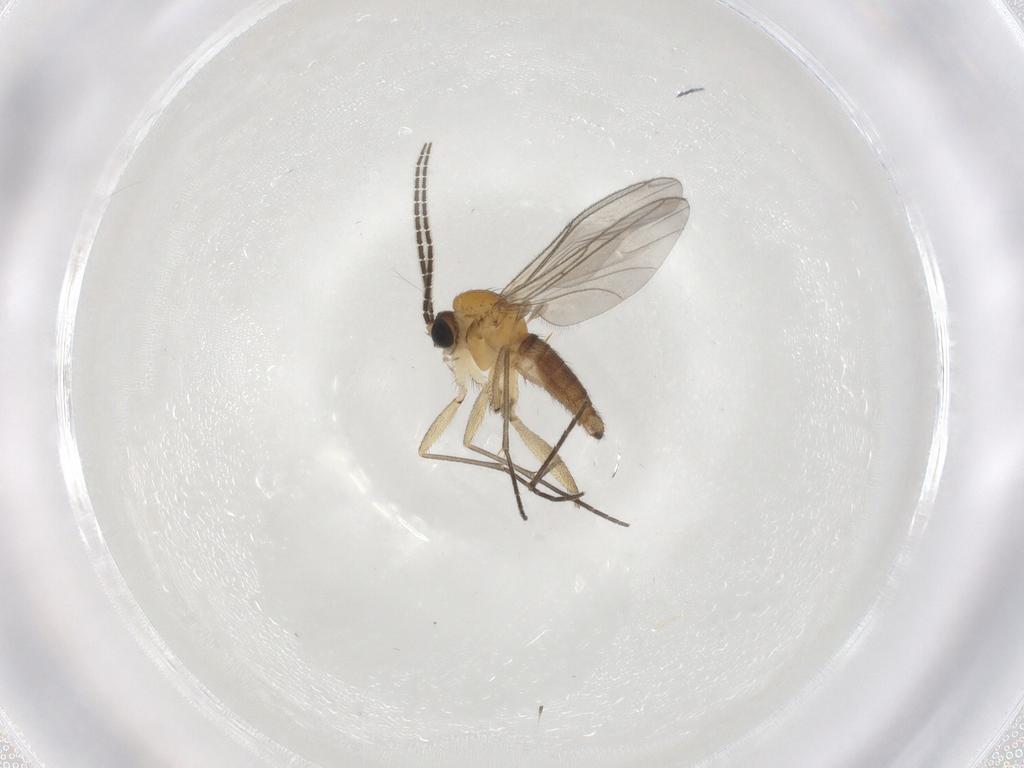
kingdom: Animalia
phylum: Arthropoda
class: Insecta
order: Diptera
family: Sciaridae
